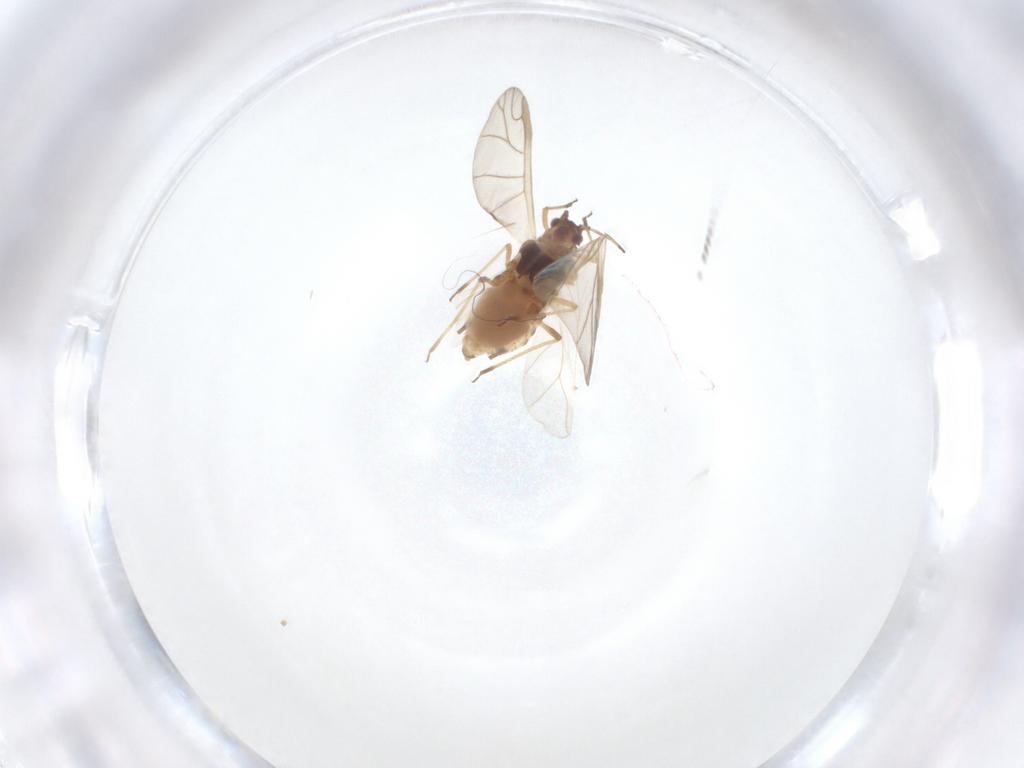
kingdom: Animalia
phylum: Arthropoda
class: Insecta
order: Hemiptera
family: Aphididae
